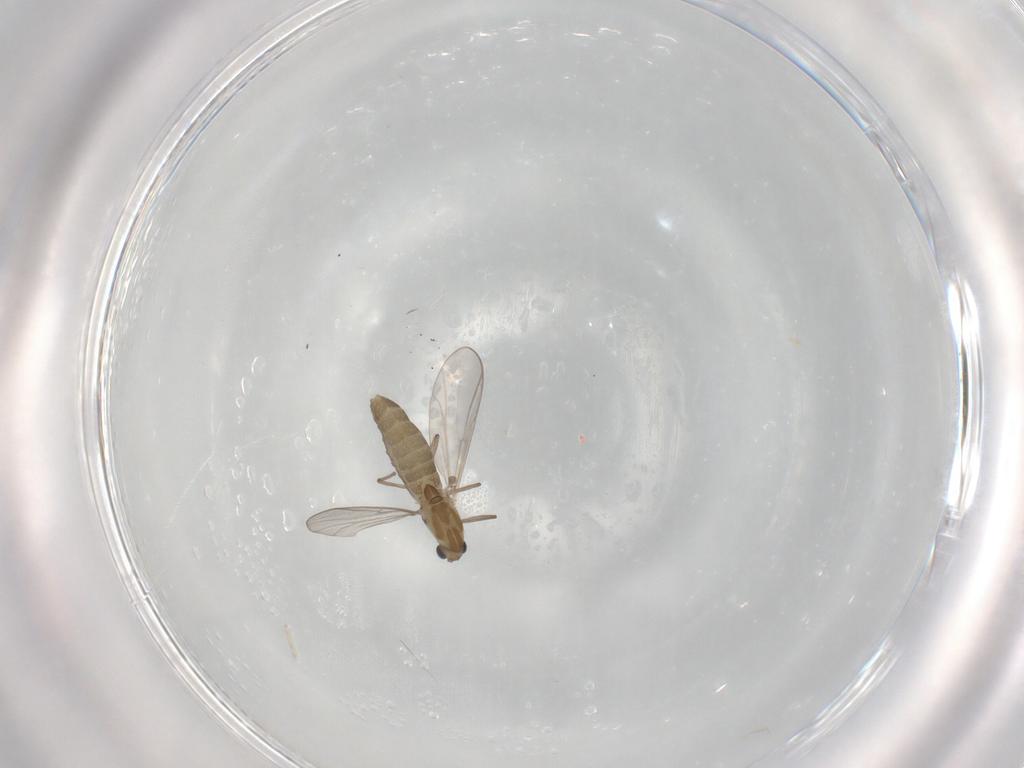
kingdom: Animalia
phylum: Arthropoda
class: Insecta
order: Diptera
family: Chironomidae
